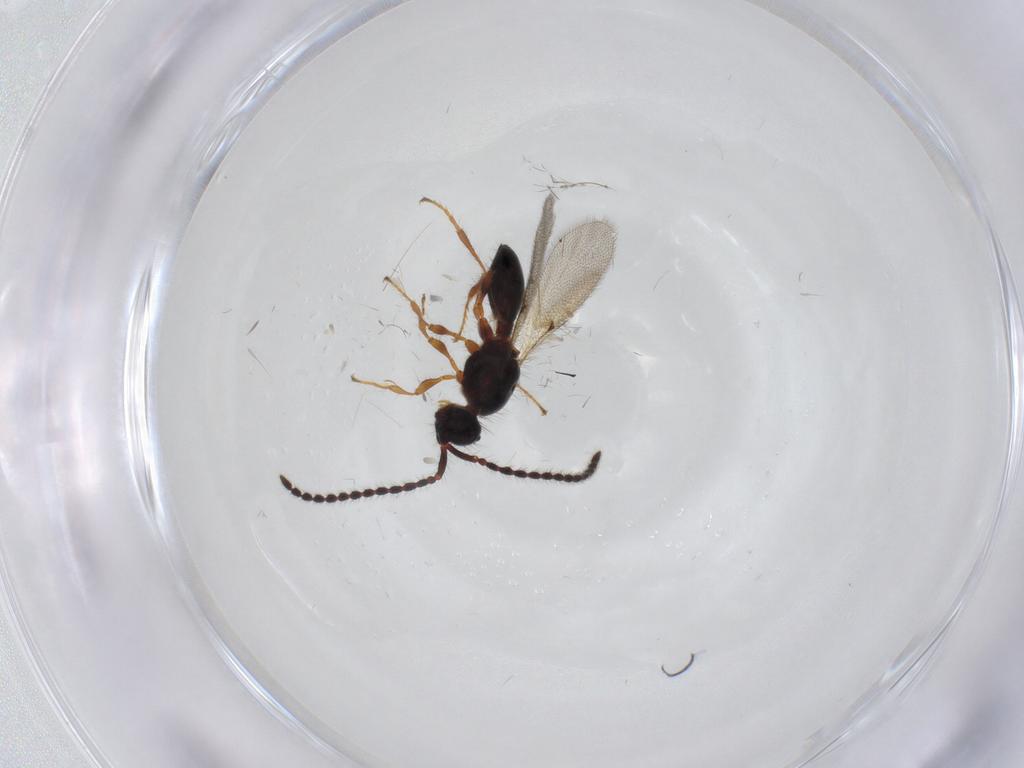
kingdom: Animalia
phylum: Arthropoda
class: Insecta
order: Hymenoptera
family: Diapriidae
